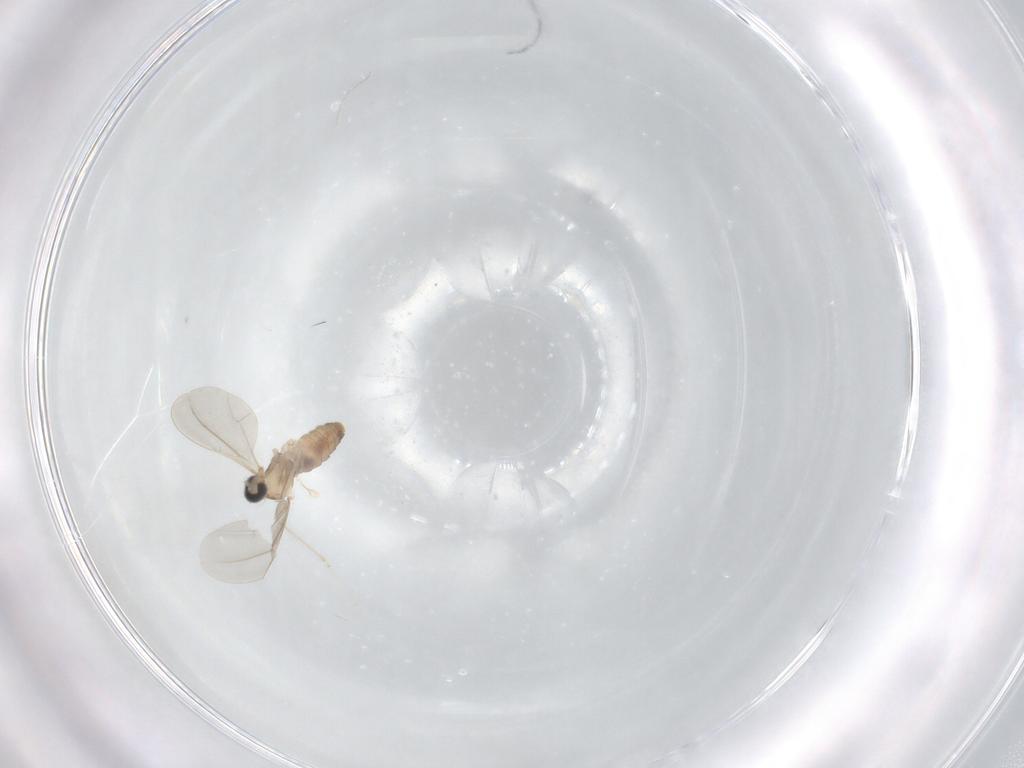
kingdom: Animalia
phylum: Arthropoda
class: Insecta
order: Diptera
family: Cecidomyiidae
